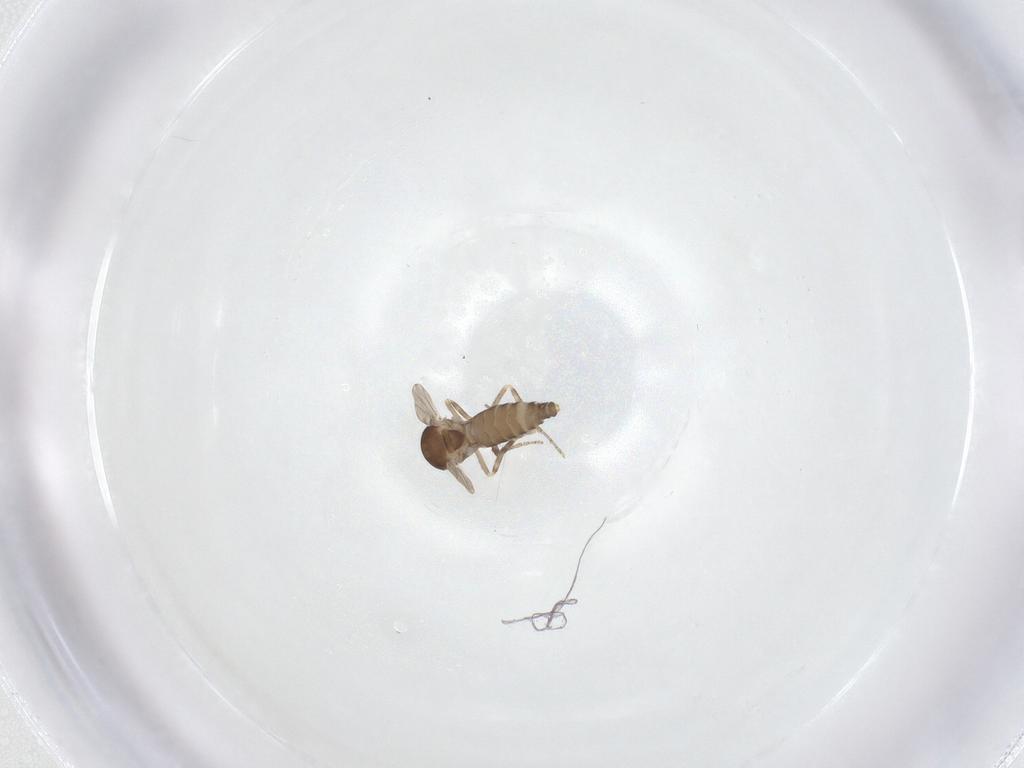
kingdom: Animalia
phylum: Arthropoda
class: Insecta
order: Diptera
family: Ceratopogonidae
